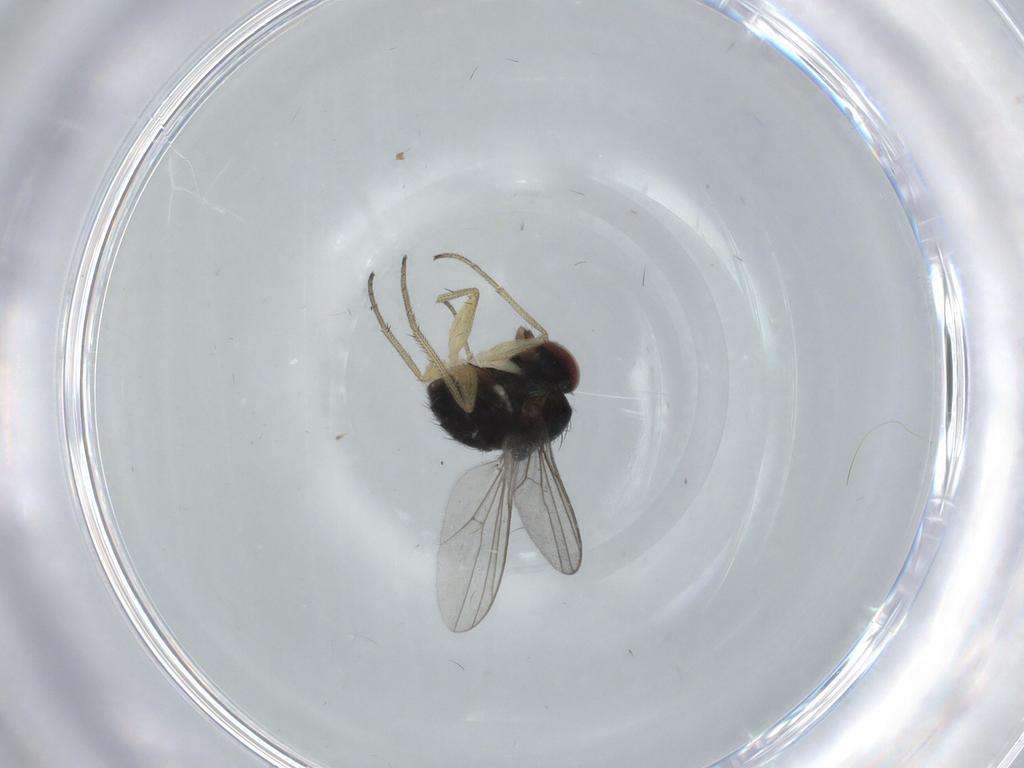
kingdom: Animalia
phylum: Arthropoda
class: Insecta
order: Diptera
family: Dolichopodidae
